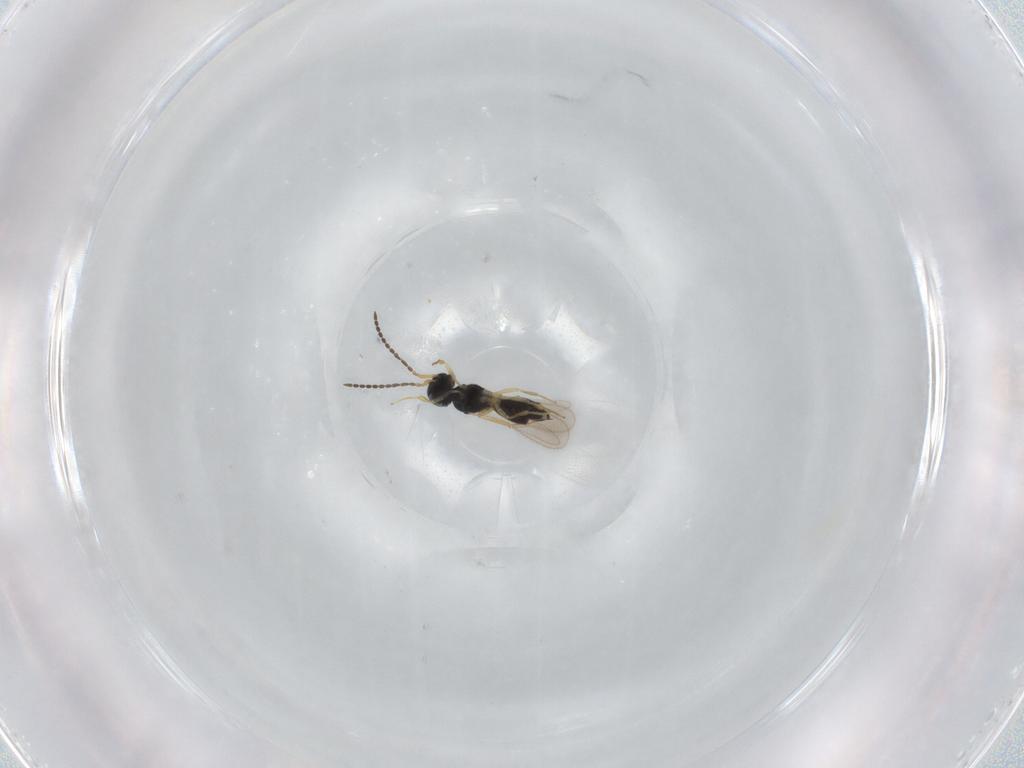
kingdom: Animalia
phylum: Arthropoda
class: Insecta
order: Hymenoptera
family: Scelionidae
